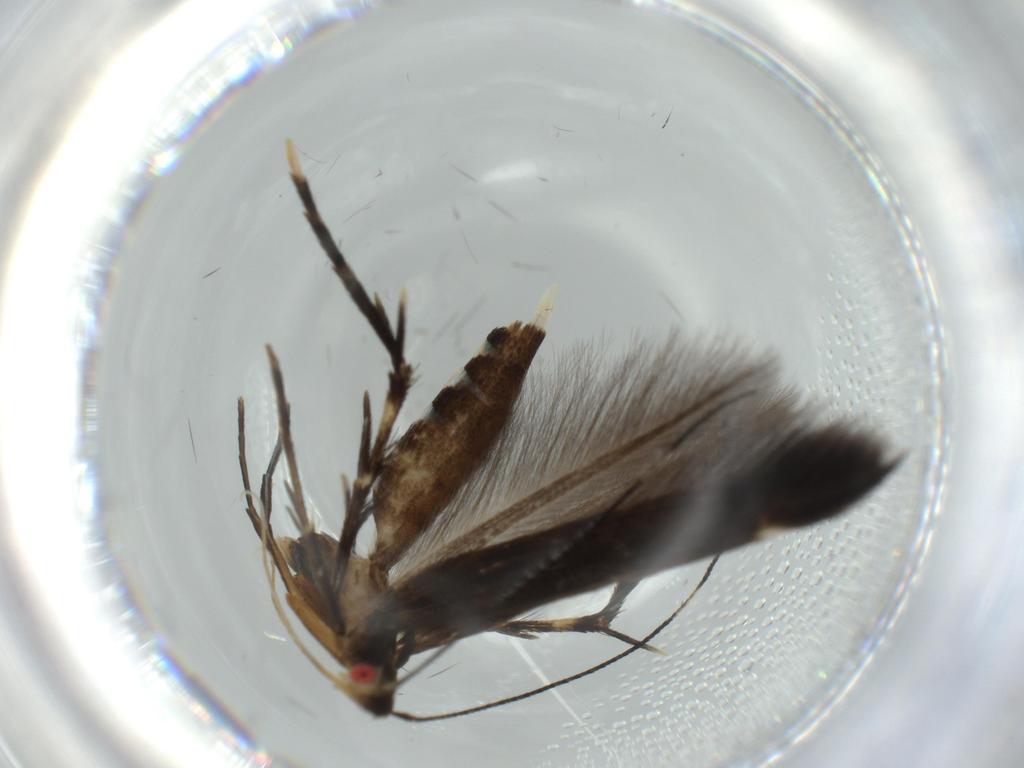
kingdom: Animalia
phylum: Arthropoda
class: Insecta
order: Lepidoptera
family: Cosmopterigidae
